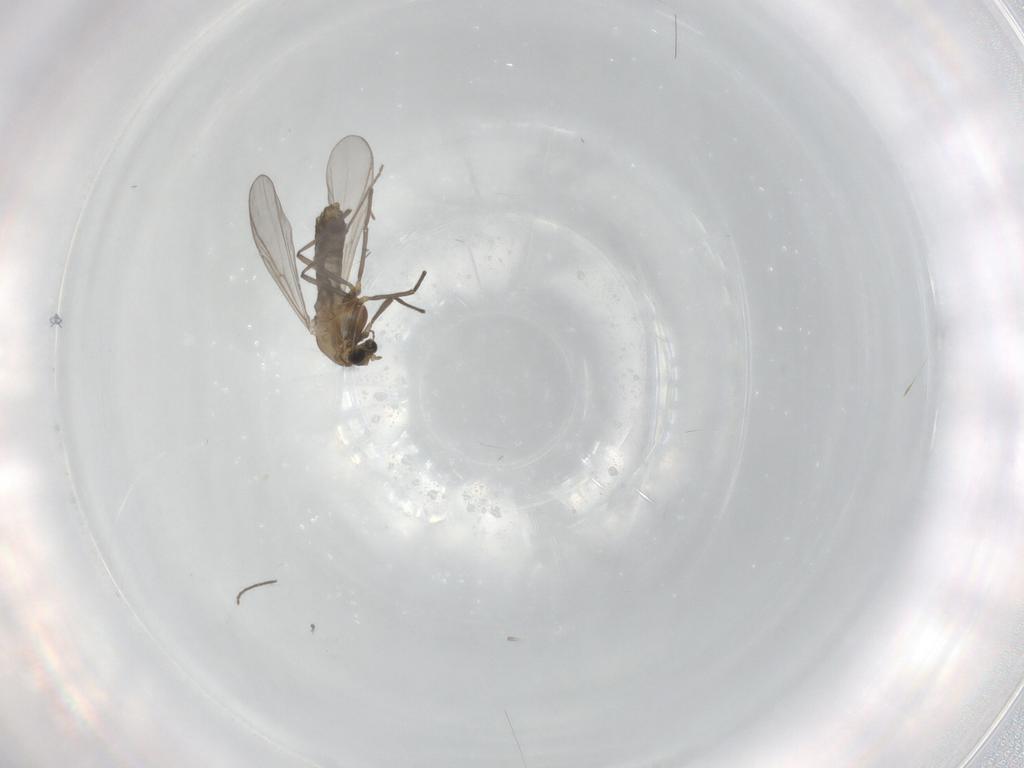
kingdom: Animalia
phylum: Arthropoda
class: Insecta
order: Diptera
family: Chironomidae
